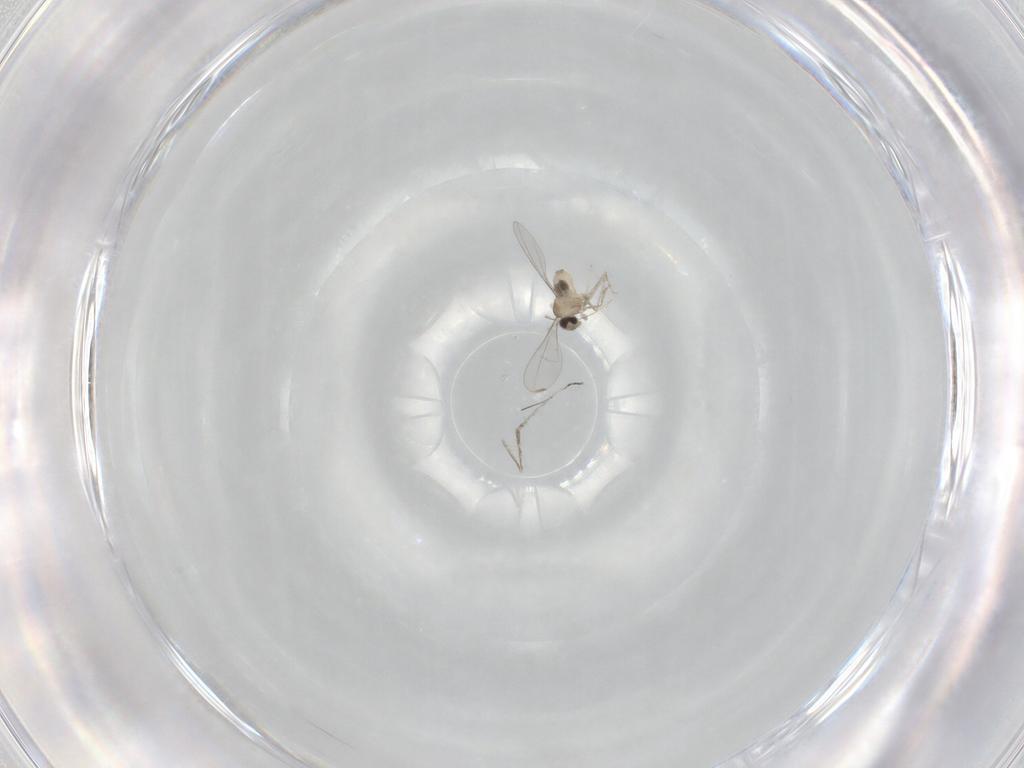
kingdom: Animalia
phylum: Arthropoda
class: Insecta
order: Diptera
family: Cecidomyiidae
